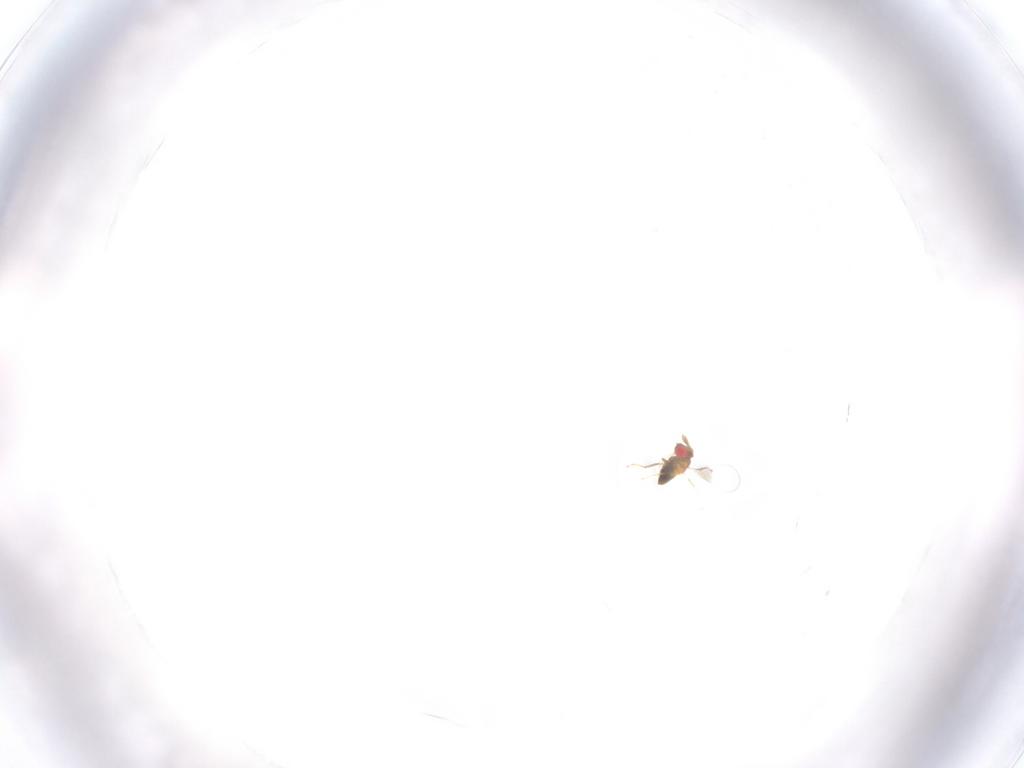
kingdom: Animalia
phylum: Arthropoda
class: Insecta
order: Hymenoptera
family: Trichogrammatidae
